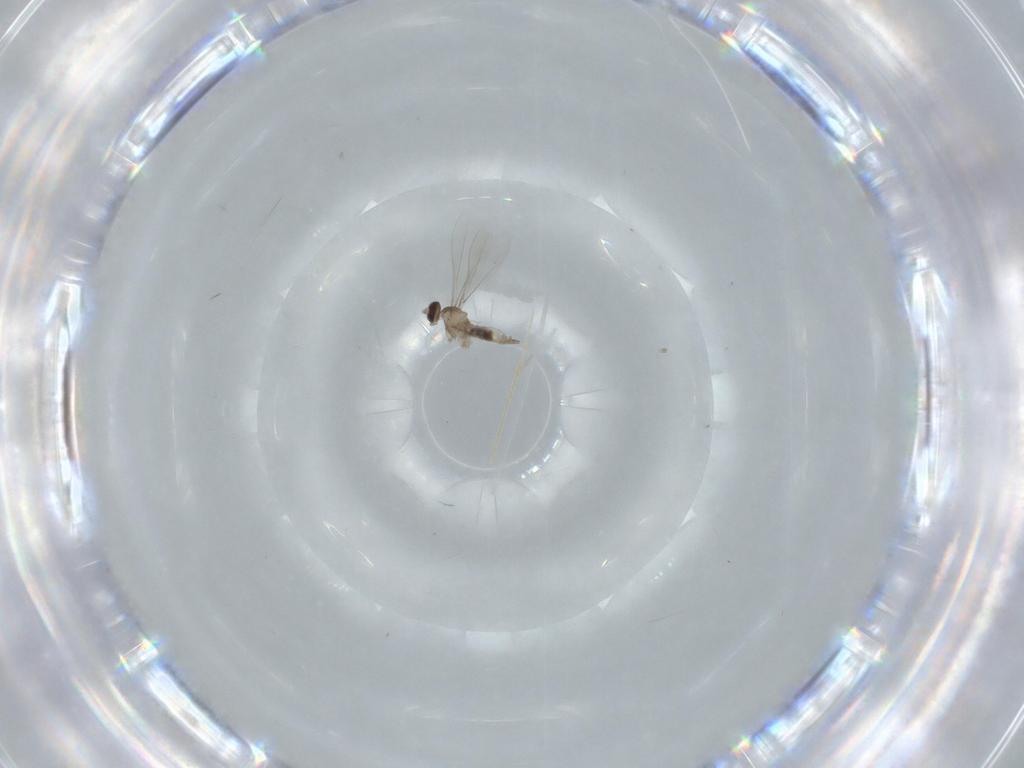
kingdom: Animalia
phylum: Arthropoda
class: Insecta
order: Diptera
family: Cecidomyiidae
